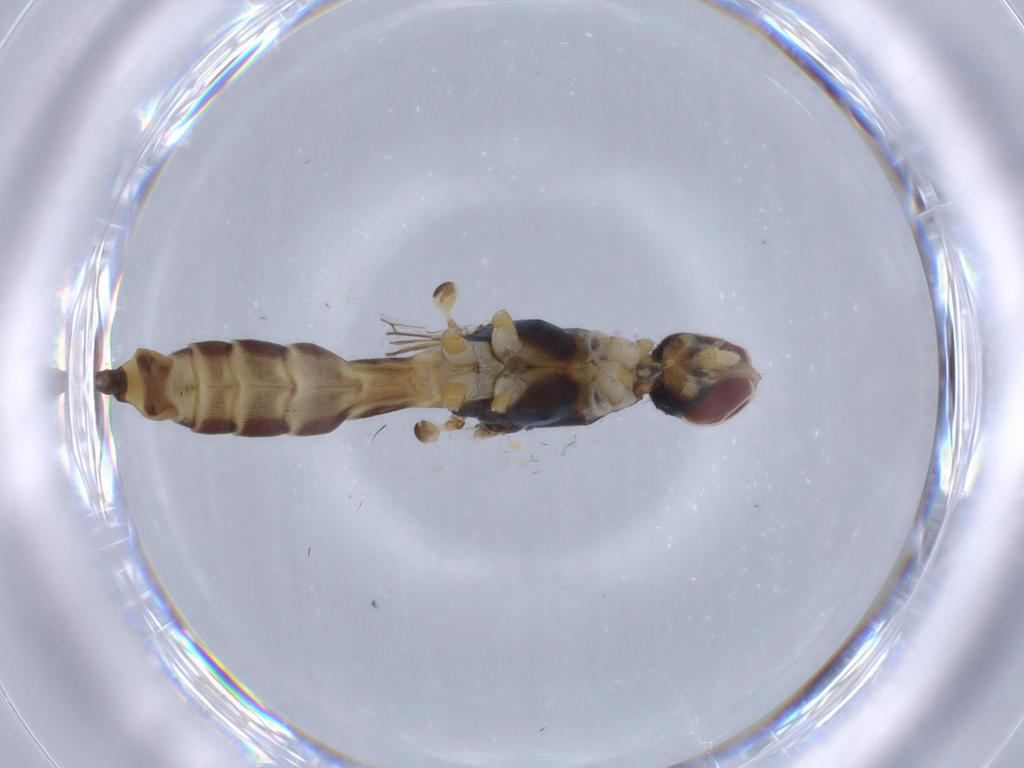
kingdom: Animalia
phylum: Arthropoda
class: Insecta
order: Diptera
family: Micropezidae
